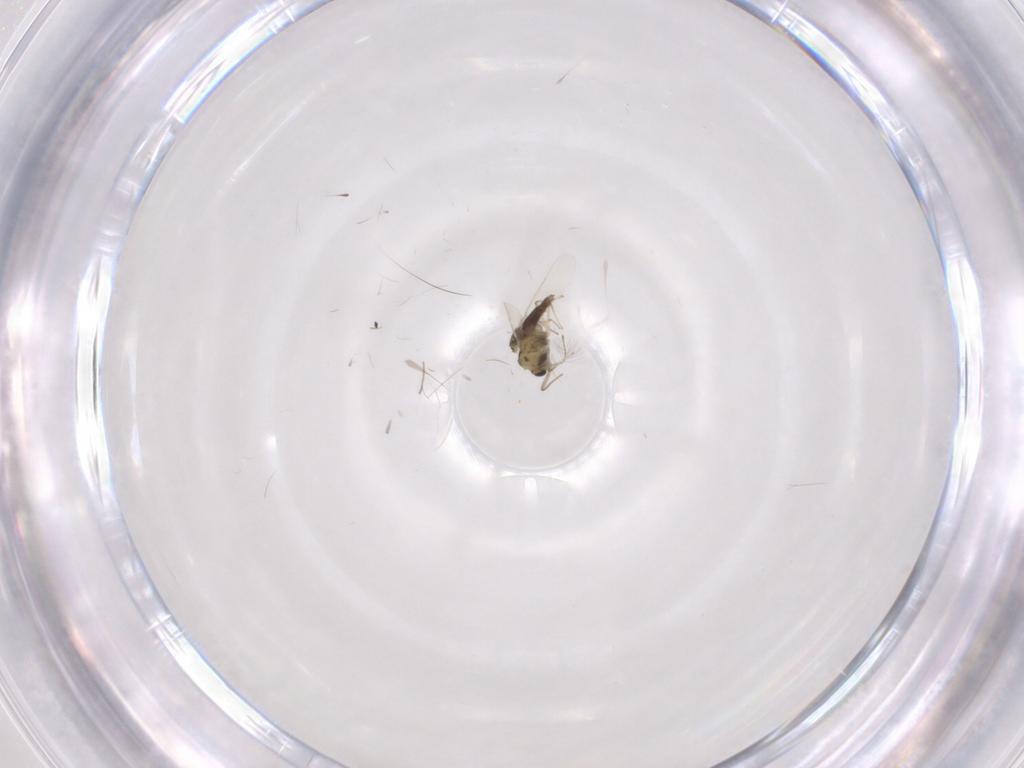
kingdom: Animalia
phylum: Arthropoda
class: Insecta
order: Diptera
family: Chironomidae
